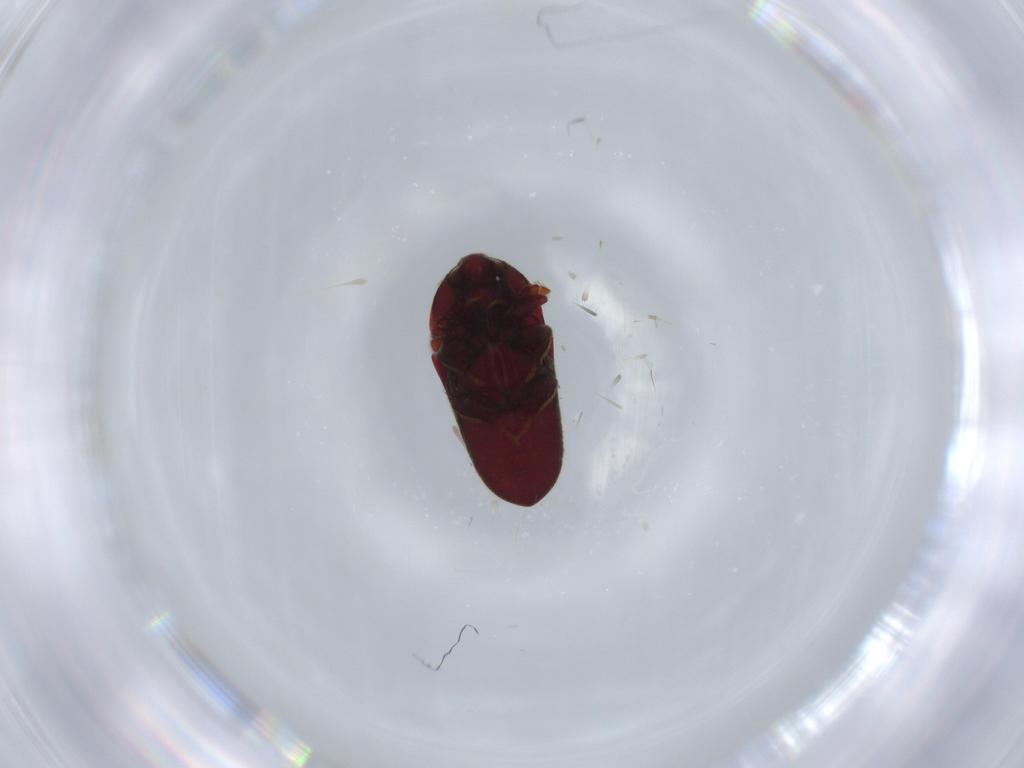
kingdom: Animalia
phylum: Arthropoda
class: Insecta
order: Coleoptera
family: Throscidae
